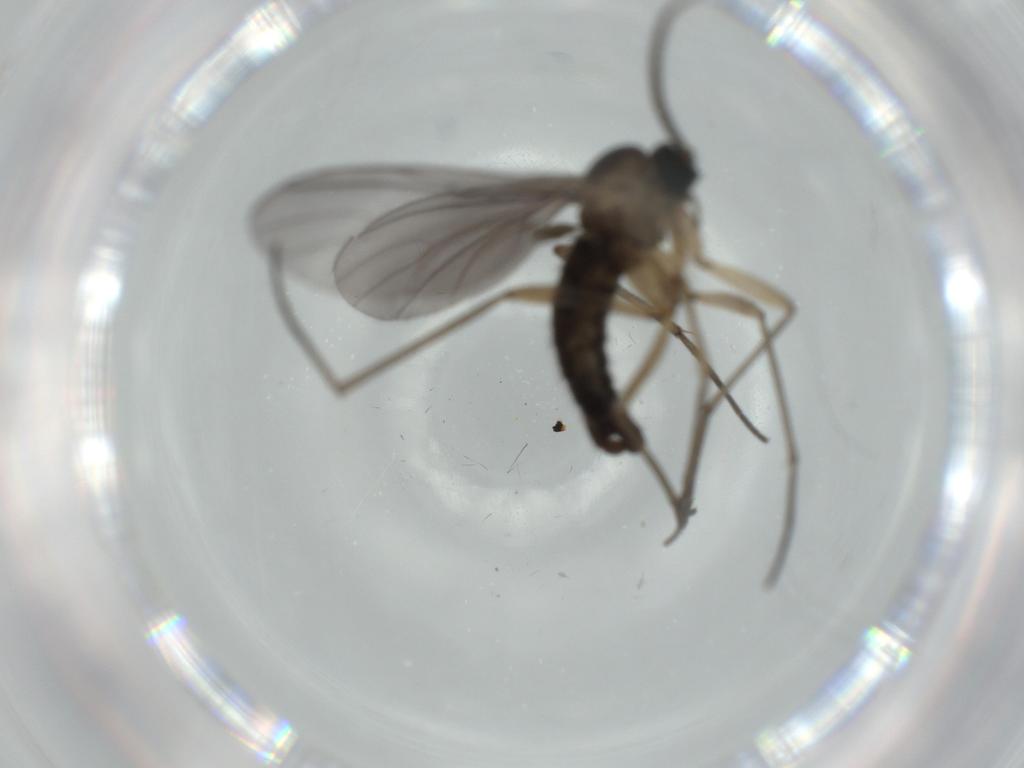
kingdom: Animalia
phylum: Arthropoda
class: Insecta
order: Diptera
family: Sciaridae
